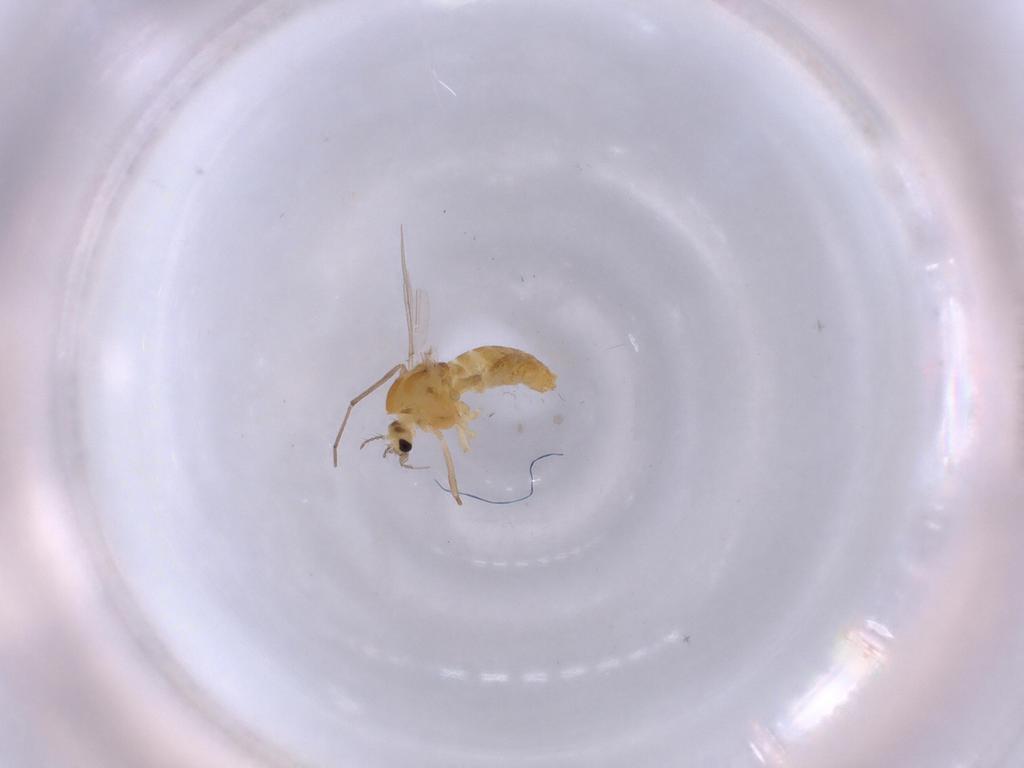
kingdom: Animalia
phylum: Arthropoda
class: Insecta
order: Diptera
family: Chironomidae
